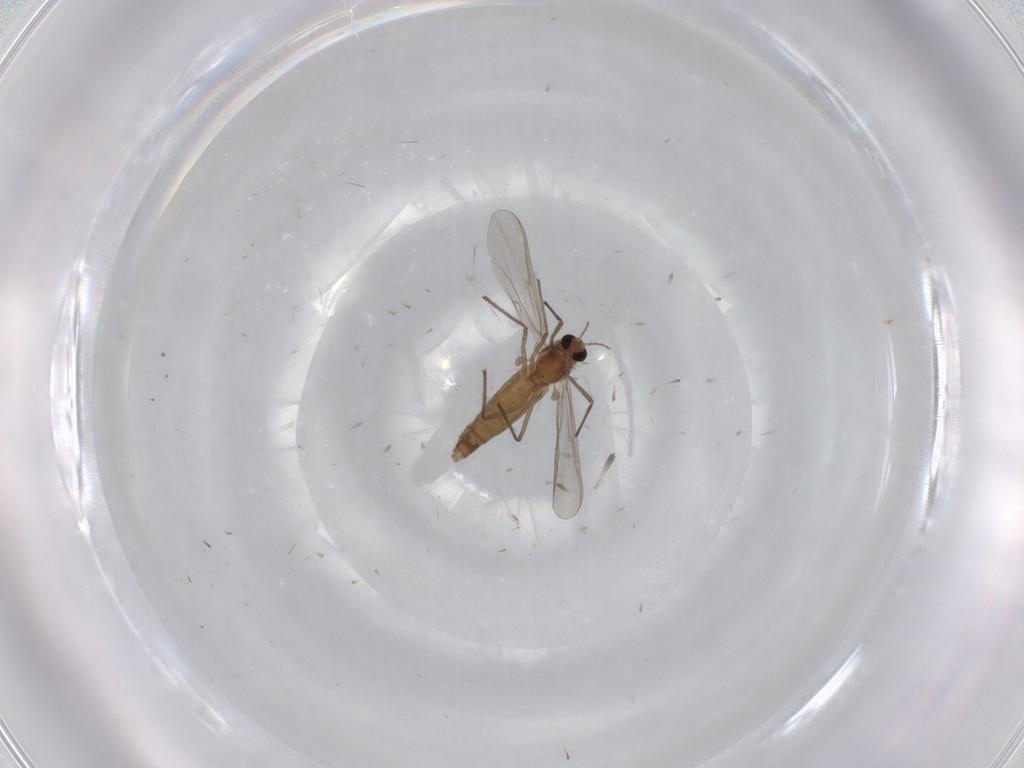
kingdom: Animalia
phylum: Arthropoda
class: Insecta
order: Diptera
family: Cecidomyiidae
